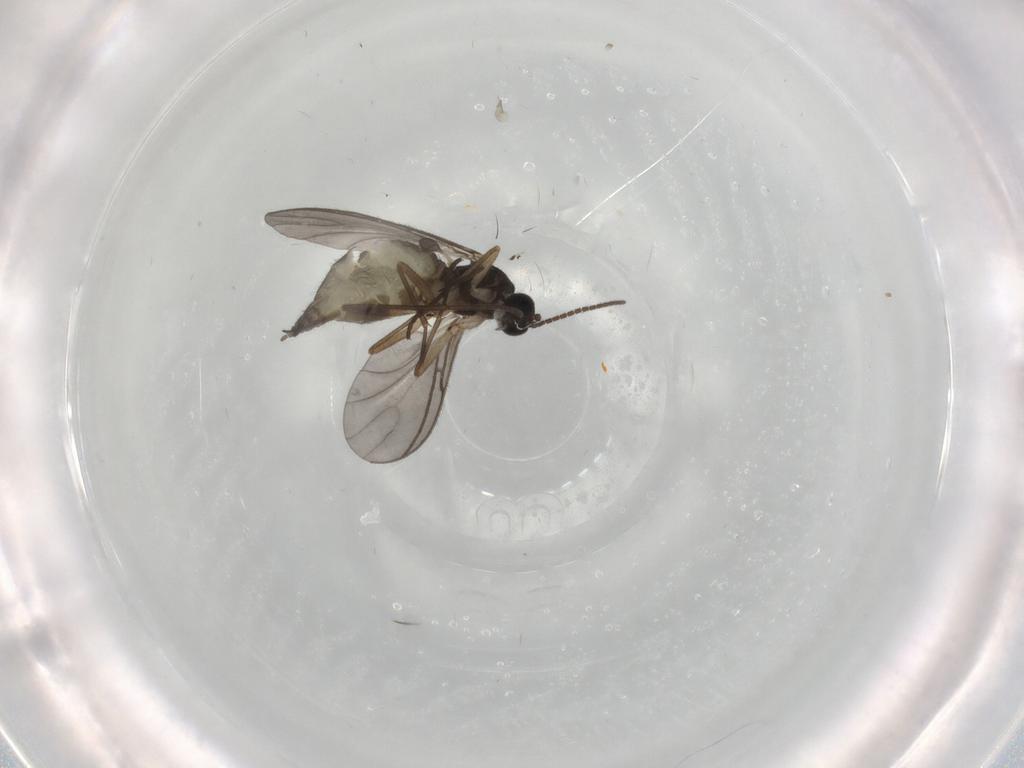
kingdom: Animalia
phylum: Arthropoda
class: Insecta
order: Diptera
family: Sciaridae
